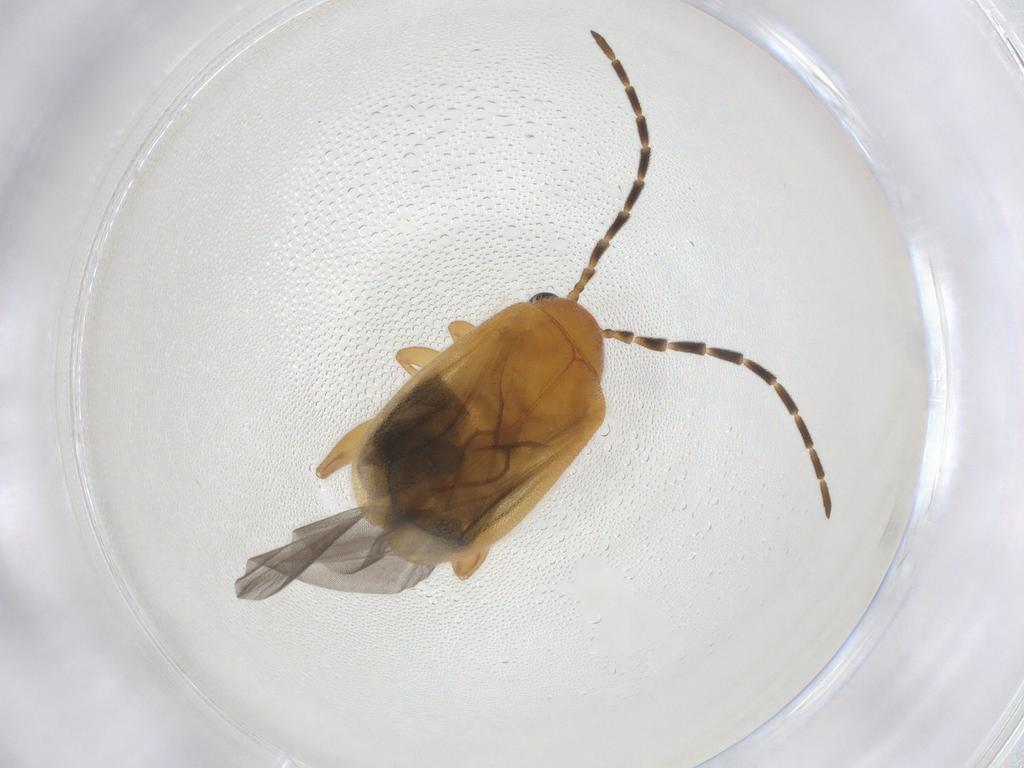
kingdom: Animalia
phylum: Arthropoda
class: Insecta
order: Coleoptera
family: Chrysomelidae
